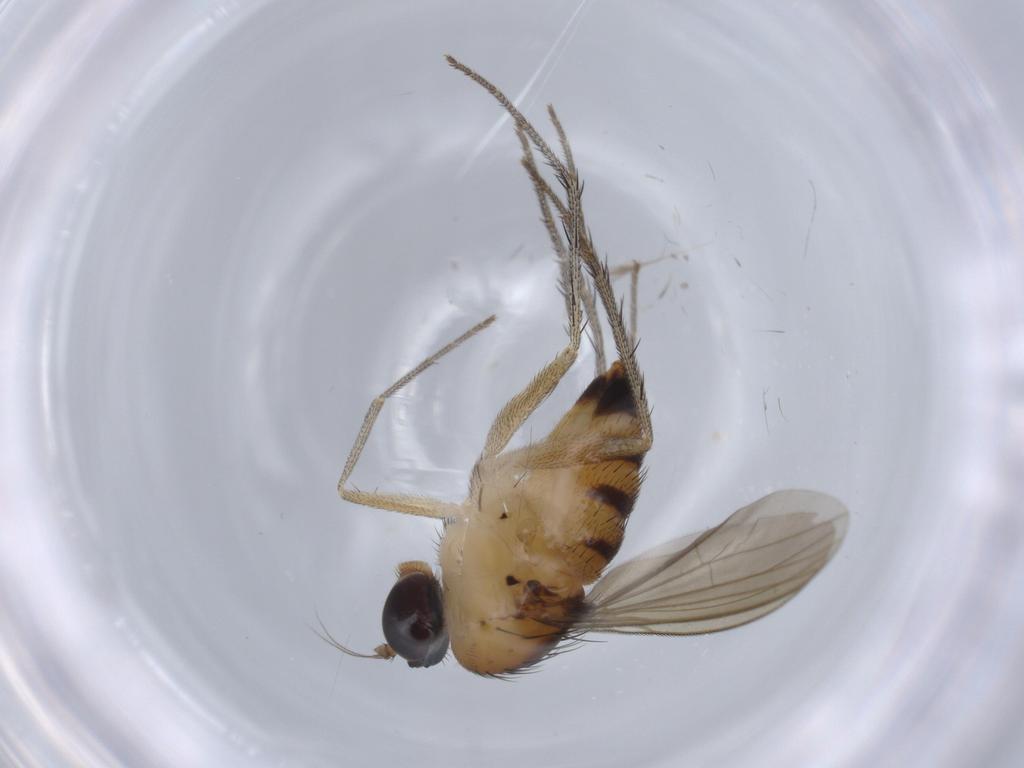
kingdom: Animalia
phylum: Arthropoda
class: Insecta
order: Diptera
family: Dolichopodidae
